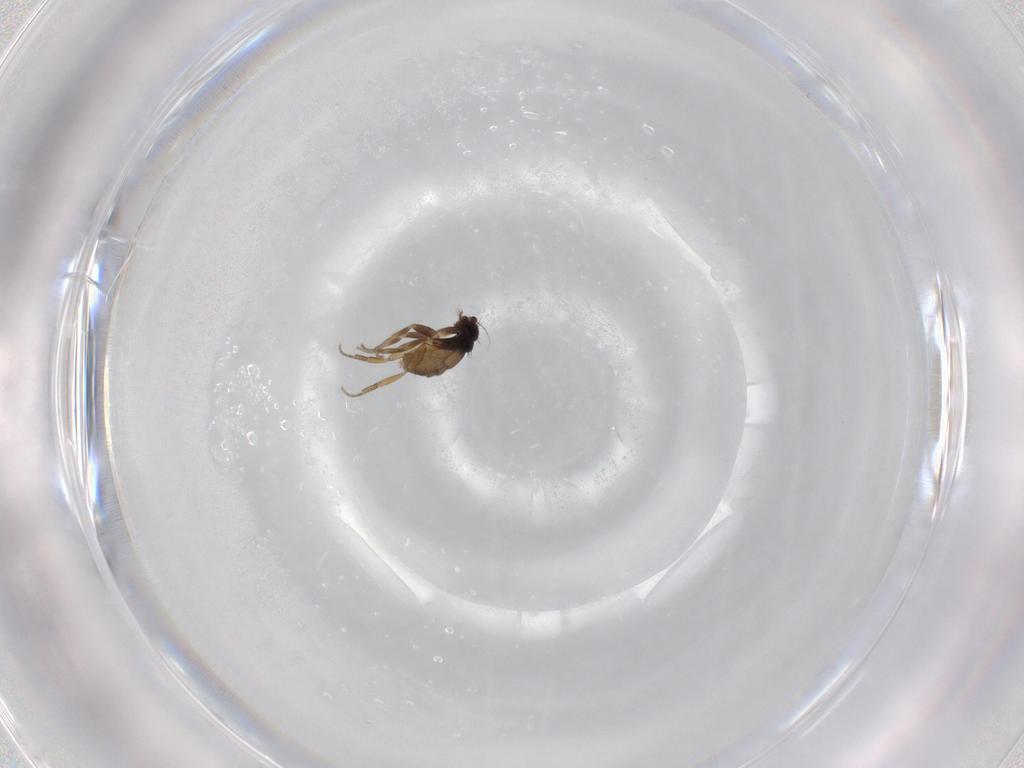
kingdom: Animalia
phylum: Arthropoda
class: Insecta
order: Diptera
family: Phoridae
